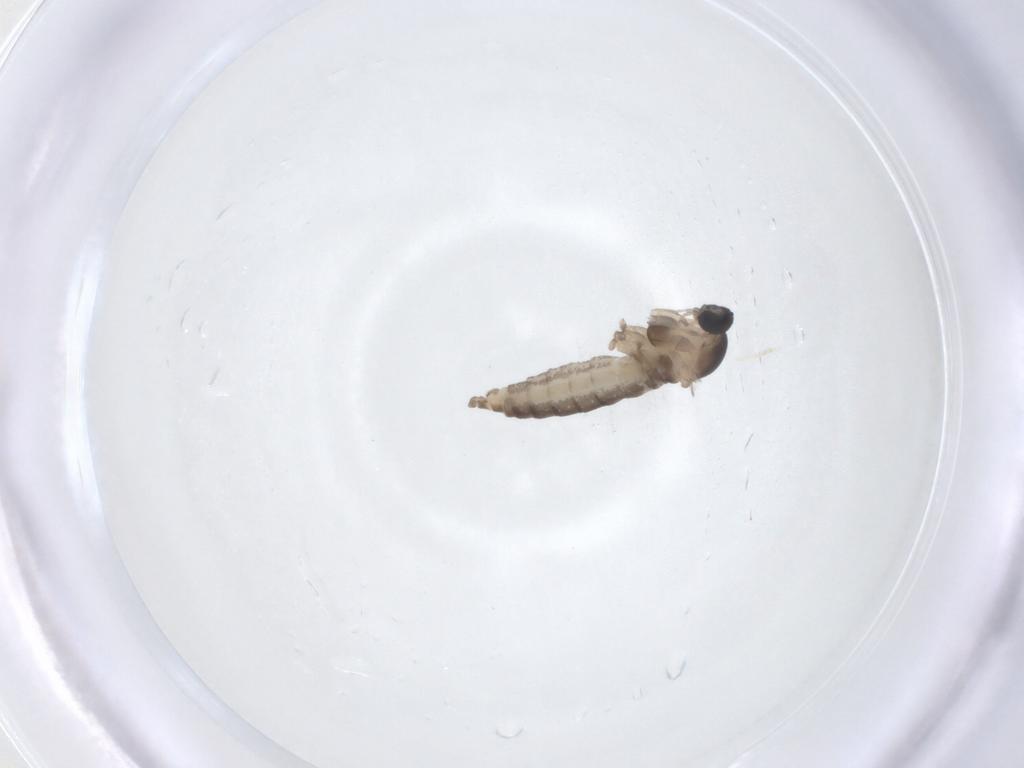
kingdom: Animalia
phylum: Arthropoda
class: Insecta
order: Diptera
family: Cecidomyiidae
